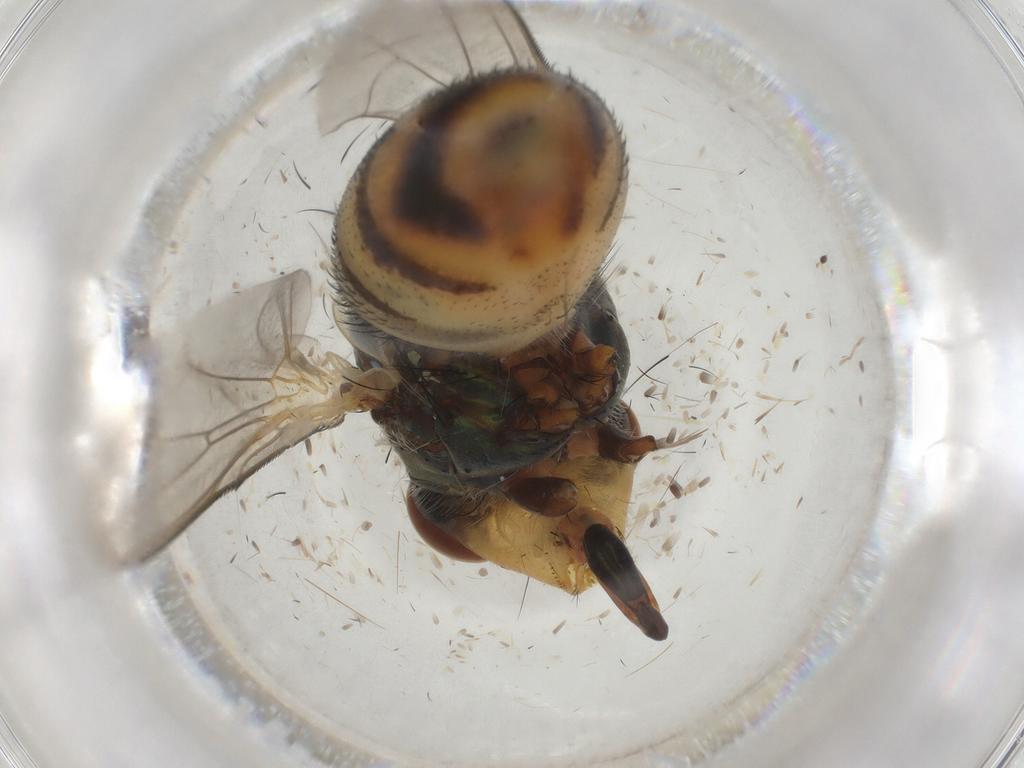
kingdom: Animalia
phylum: Arthropoda
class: Insecta
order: Diptera
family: Calliphoridae
